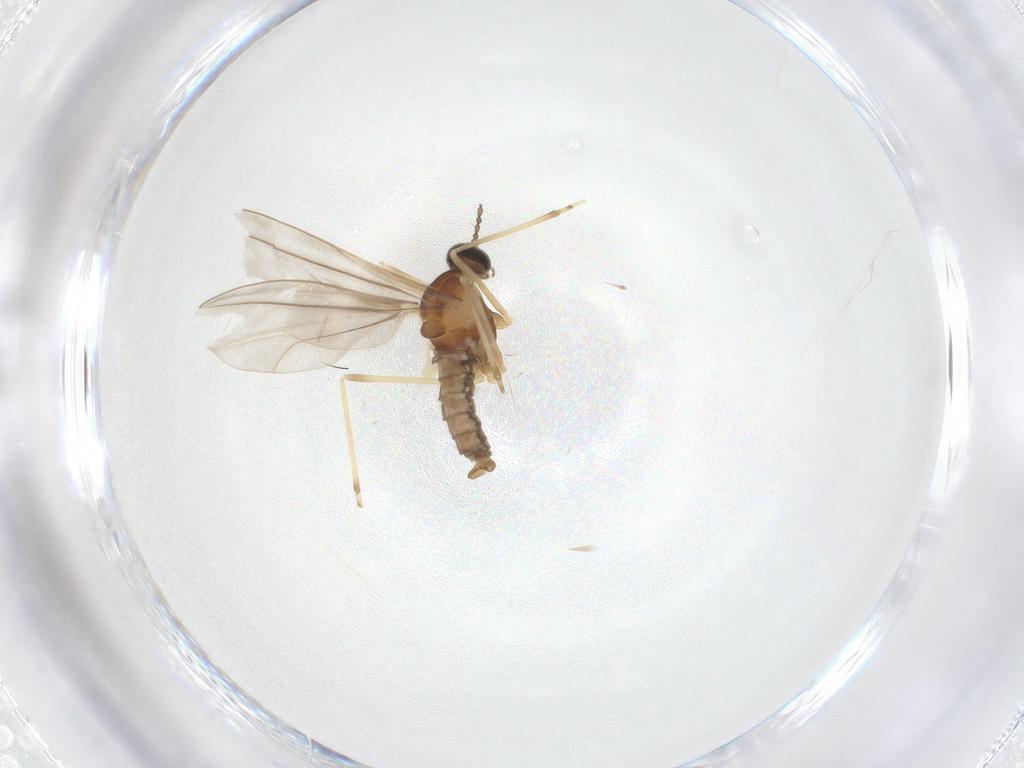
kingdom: Animalia
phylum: Arthropoda
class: Insecta
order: Diptera
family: Cecidomyiidae
